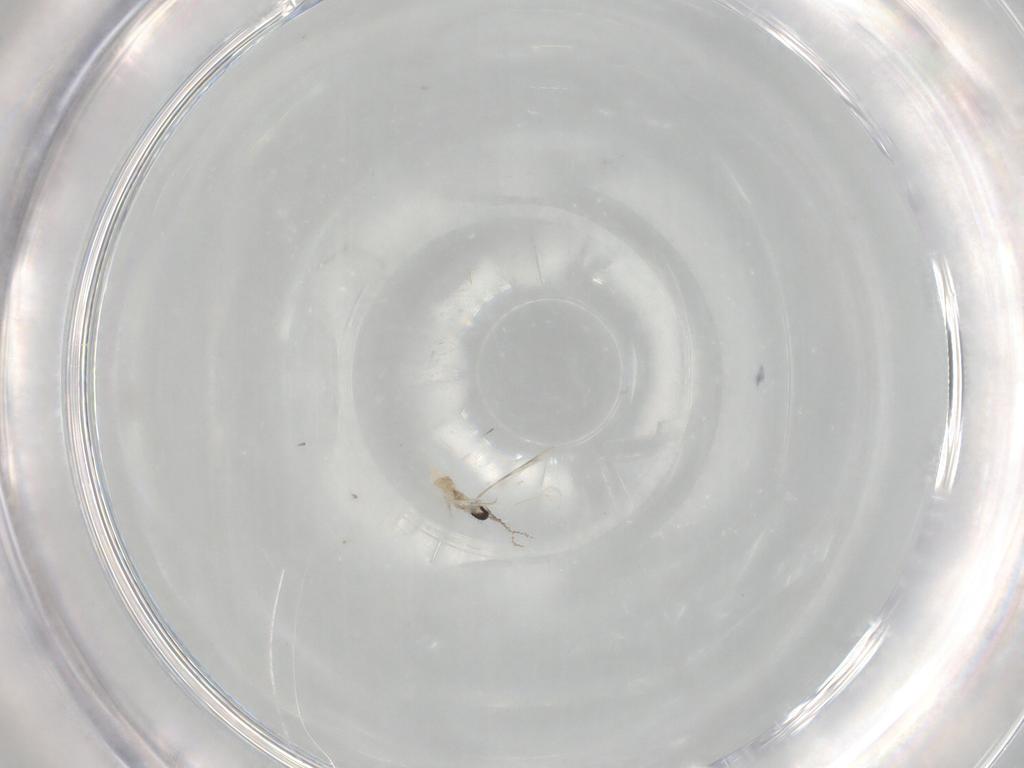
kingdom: Animalia
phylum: Arthropoda
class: Insecta
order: Diptera
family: Cecidomyiidae
